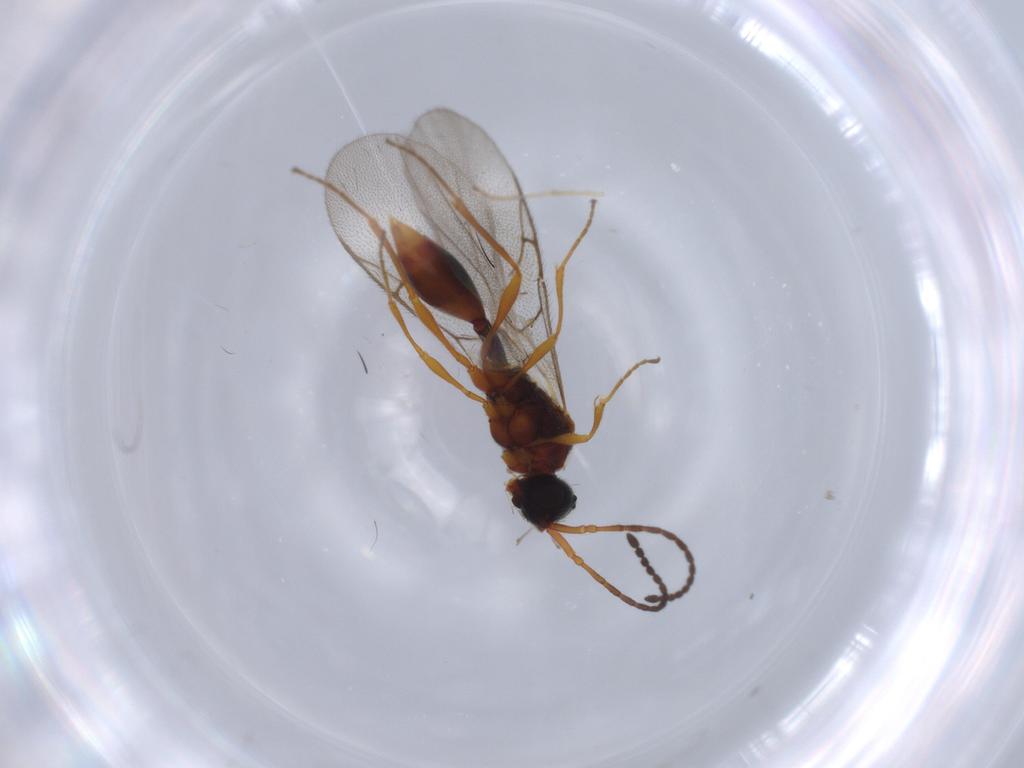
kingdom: Animalia
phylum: Arthropoda
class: Insecta
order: Hymenoptera
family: Diapriidae
